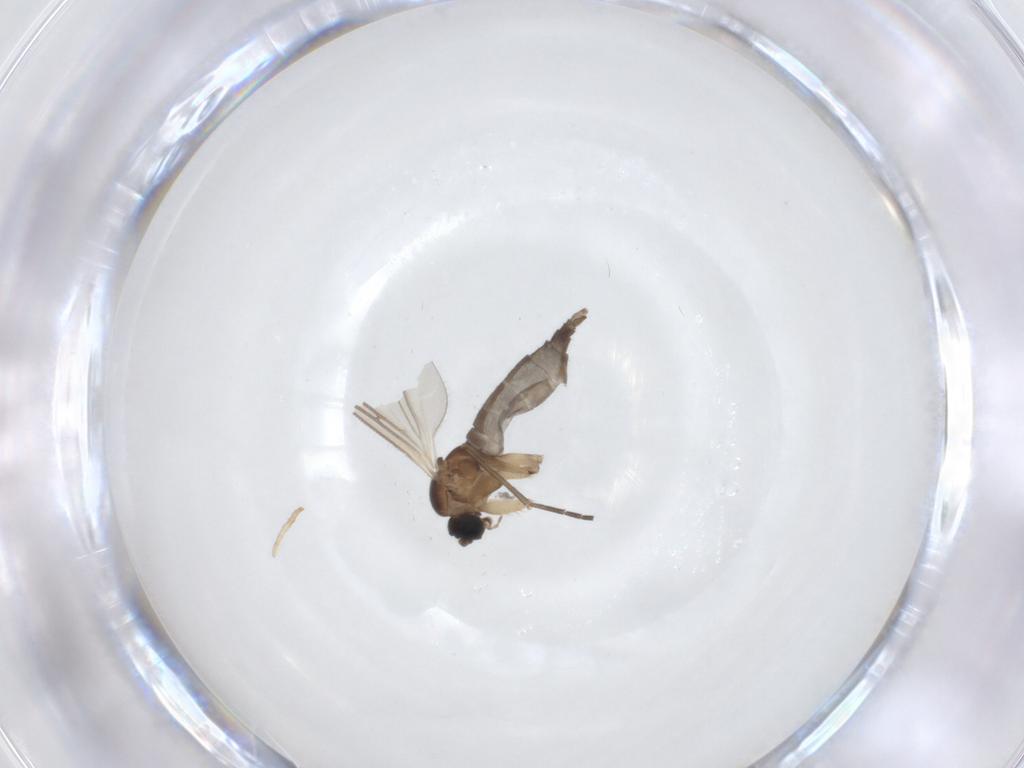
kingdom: Animalia
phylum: Arthropoda
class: Insecta
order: Diptera
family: Sciaridae
